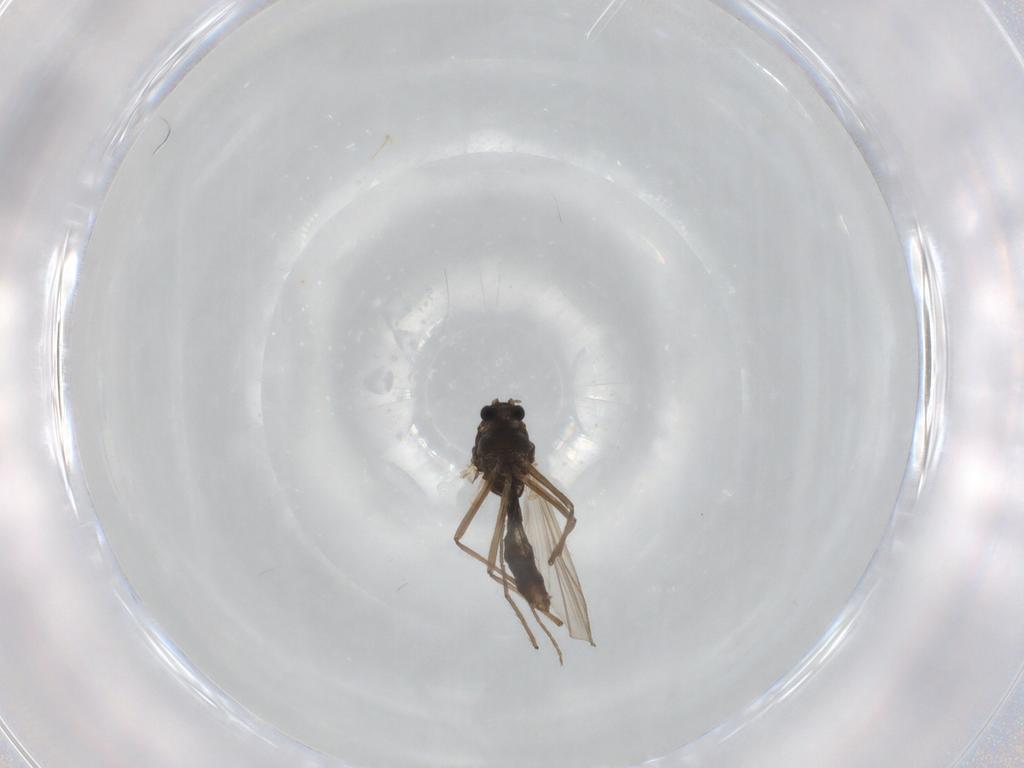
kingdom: Animalia
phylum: Arthropoda
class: Insecta
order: Diptera
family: Chironomidae
